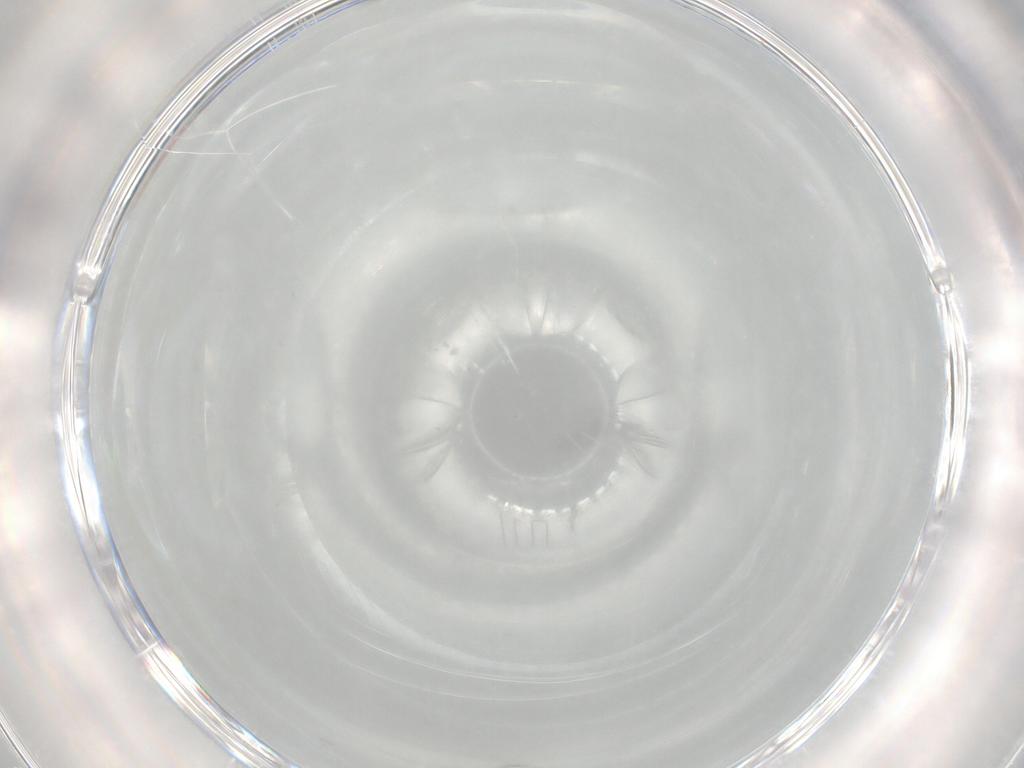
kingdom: Animalia
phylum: Arthropoda
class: Collembola
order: Entomobryomorpha
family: Entomobryidae
